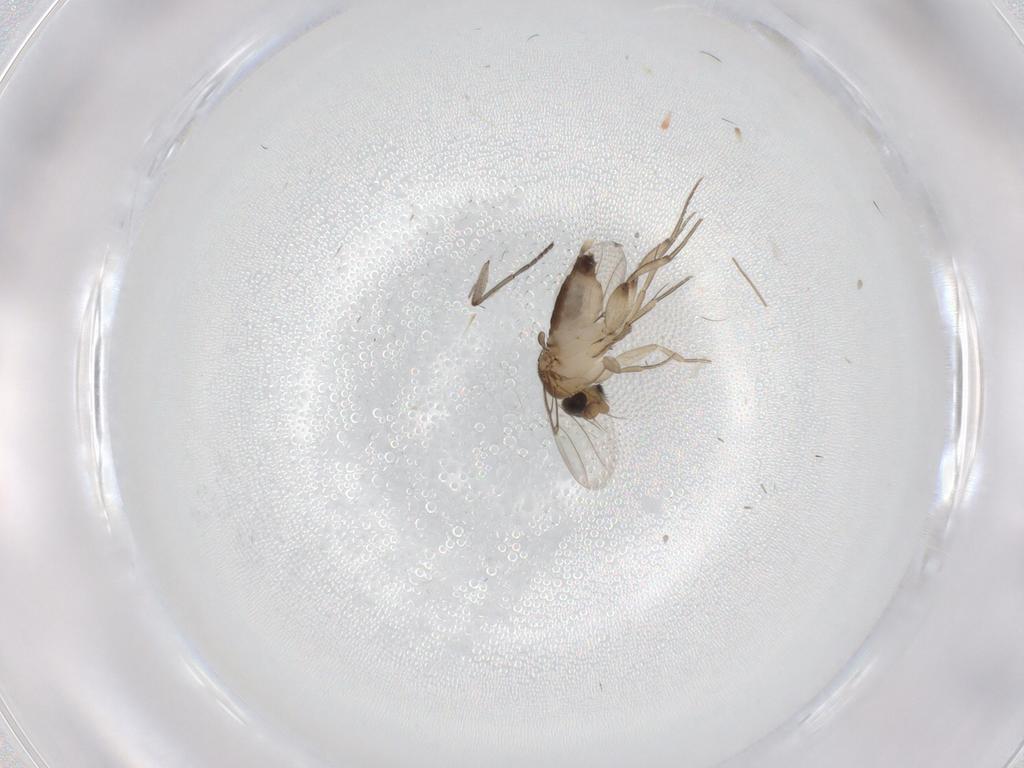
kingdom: Animalia
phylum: Arthropoda
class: Insecta
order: Diptera
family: Phoridae
